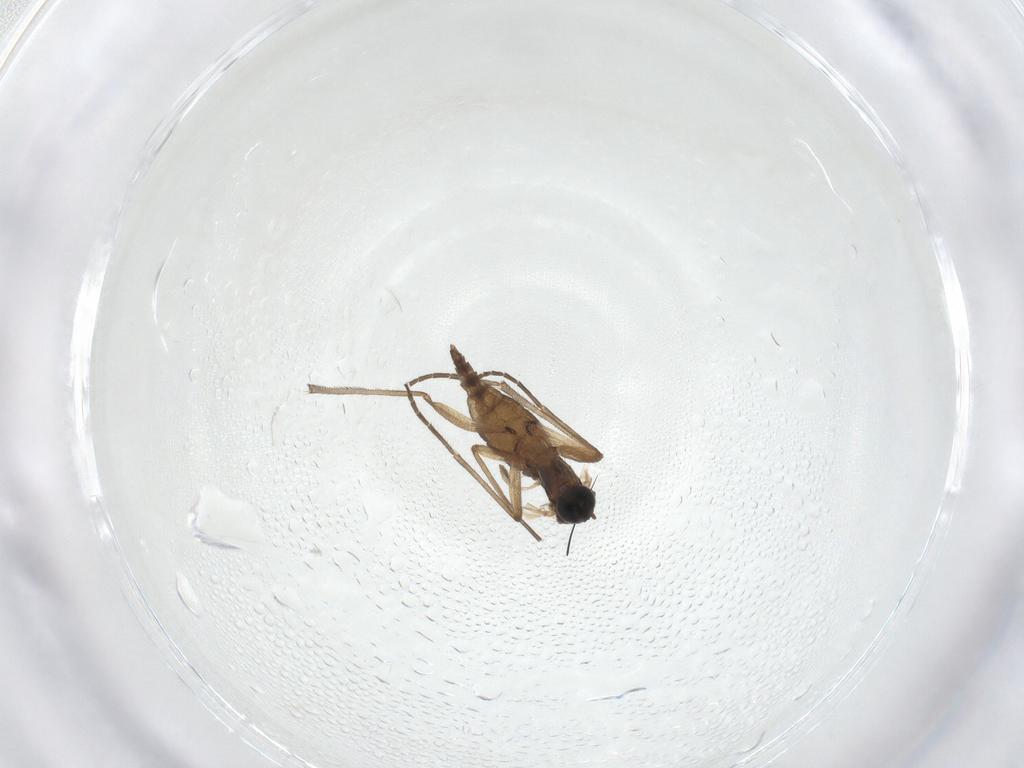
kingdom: Animalia
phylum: Arthropoda
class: Insecta
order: Diptera
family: Sciaridae
